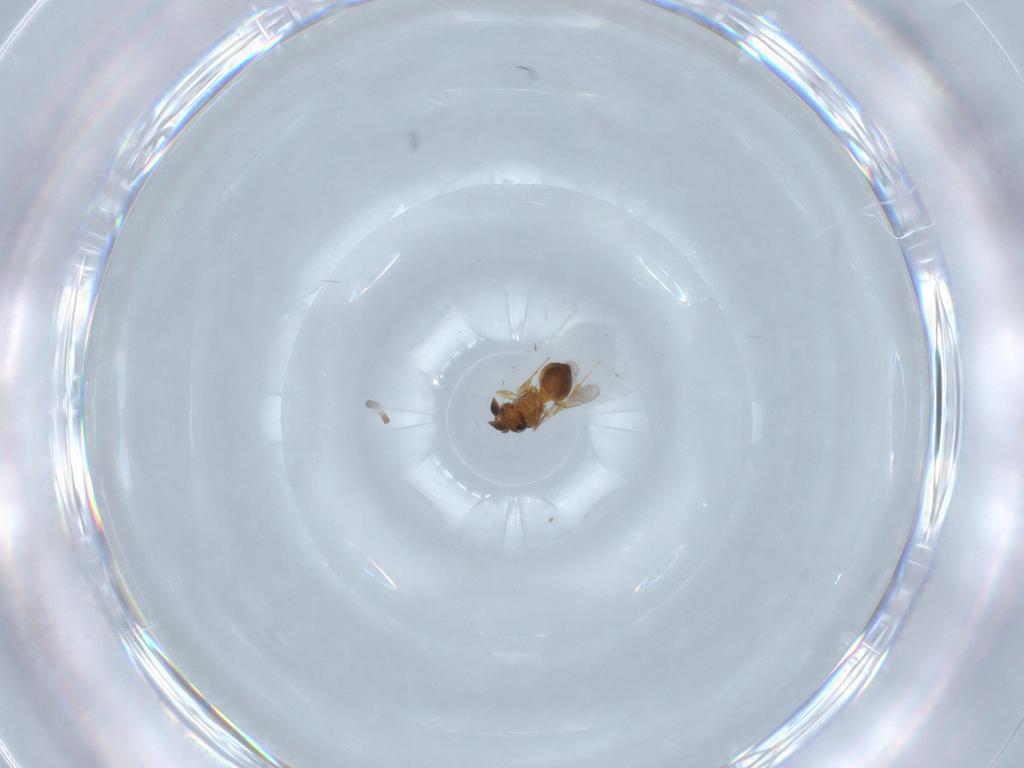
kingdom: Animalia
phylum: Arthropoda
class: Insecta
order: Hymenoptera
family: Scelionidae
